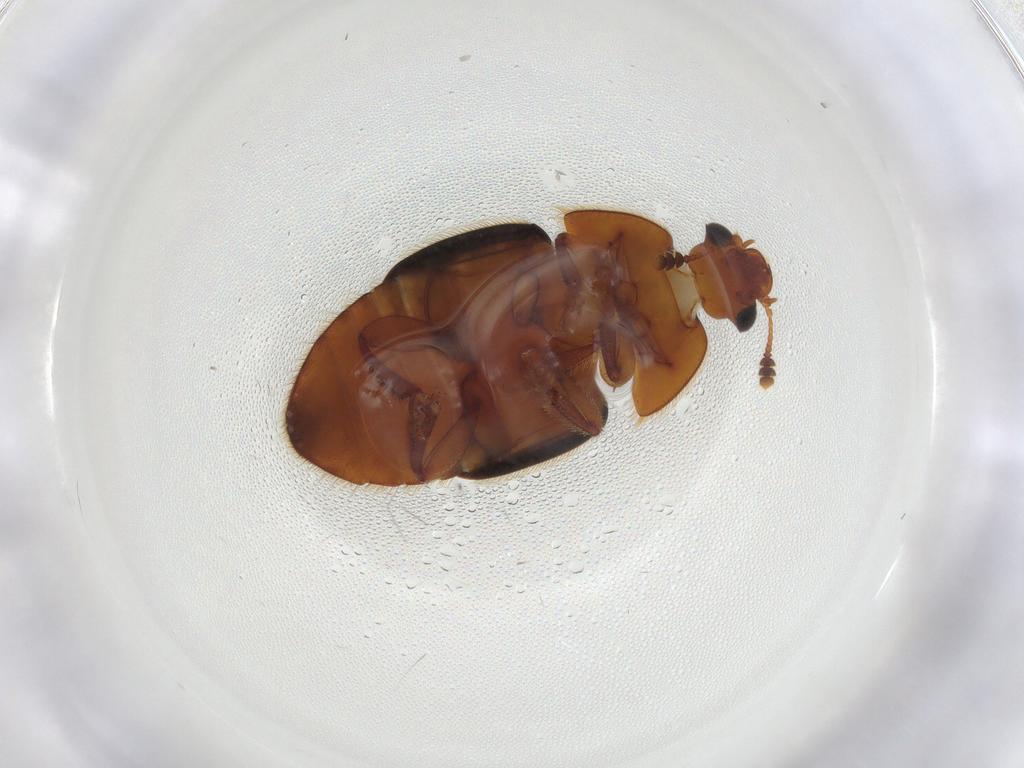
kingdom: Animalia
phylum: Arthropoda
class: Insecta
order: Coleoptera
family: Nitidulidae
